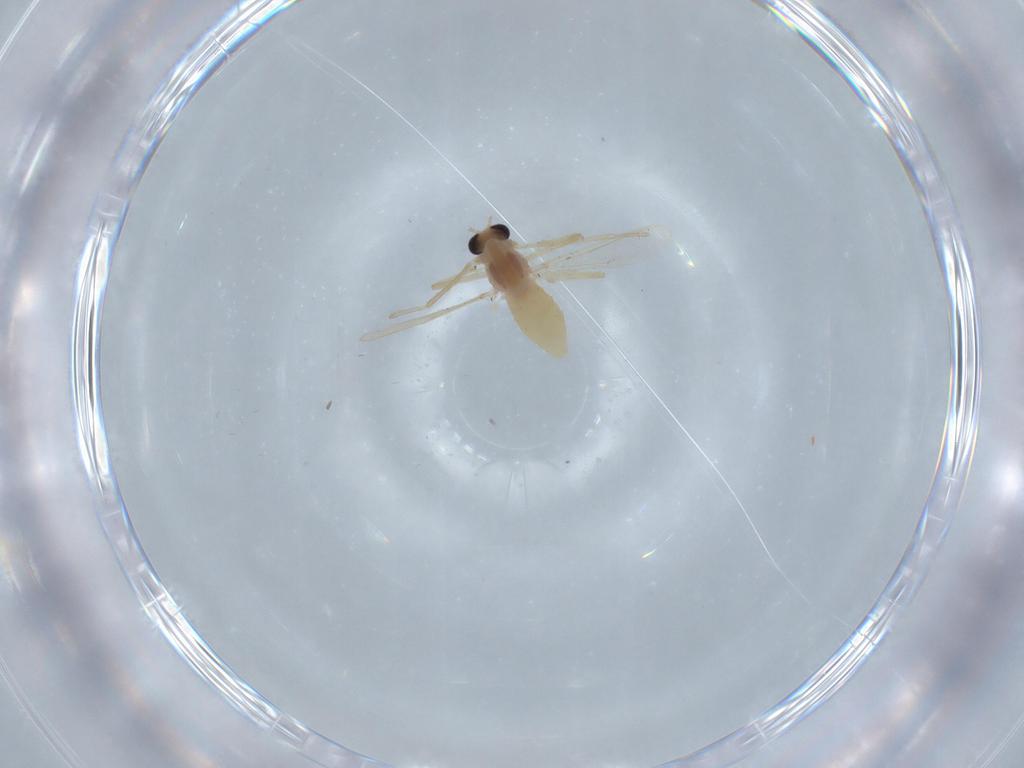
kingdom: Animalia
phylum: Arthropoda
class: Insecta
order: Diptera
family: Chironomidae
